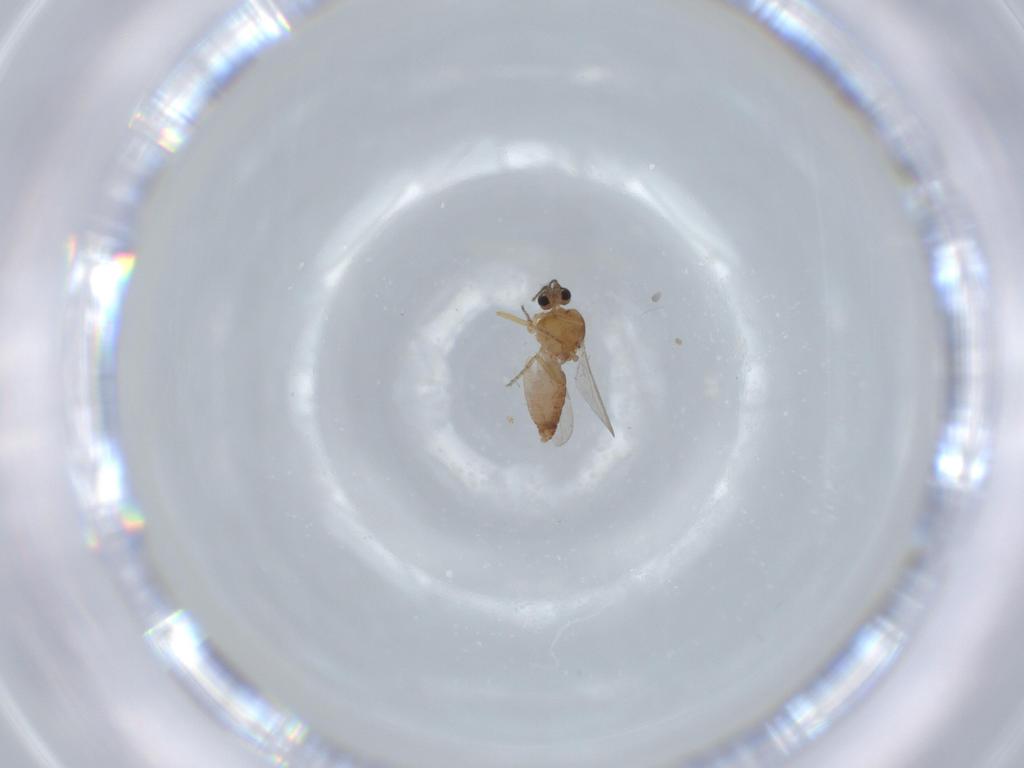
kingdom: Animalia
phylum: Arthropoda
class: Insecta
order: Diptera
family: Ceratopogonidae
